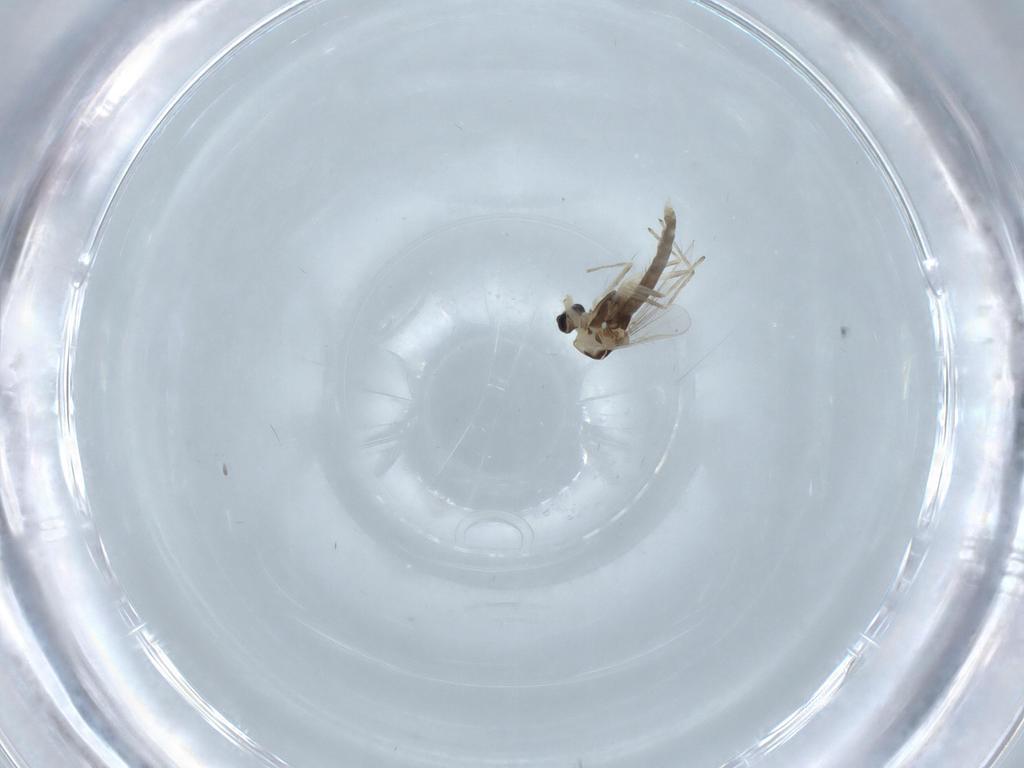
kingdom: Animalia
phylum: Arthropoda
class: Insecta
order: Diptera
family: Chironomidae
